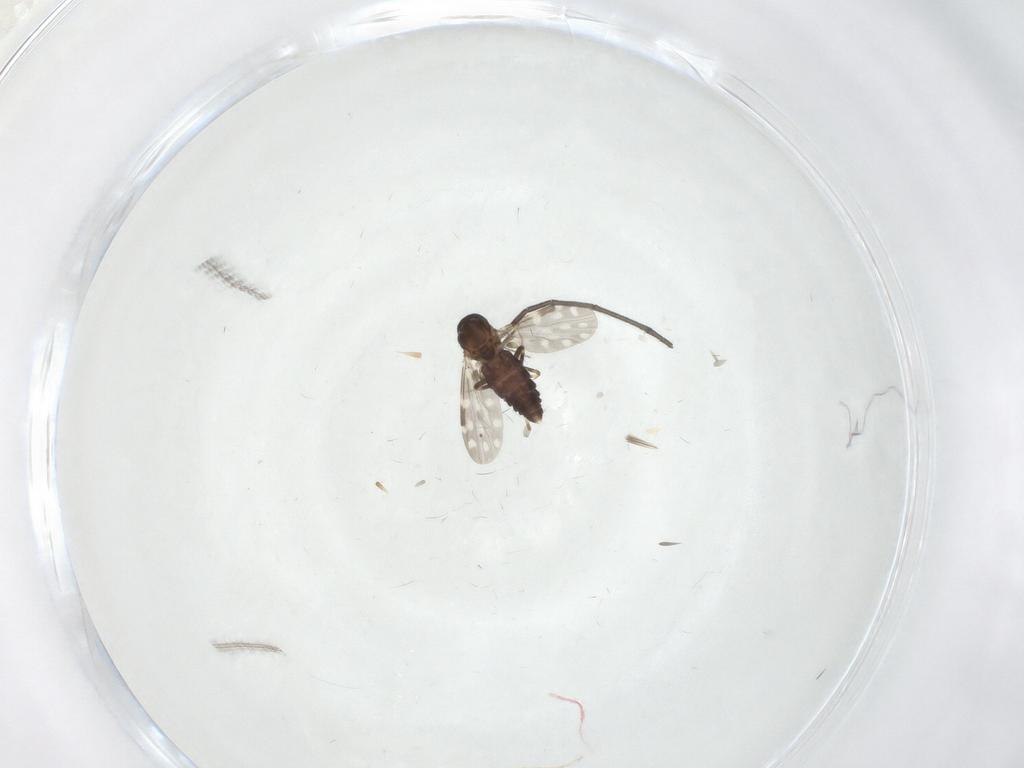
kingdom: Animalia
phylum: Arthropoda
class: Insecta
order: Diptera
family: Sciaridae
